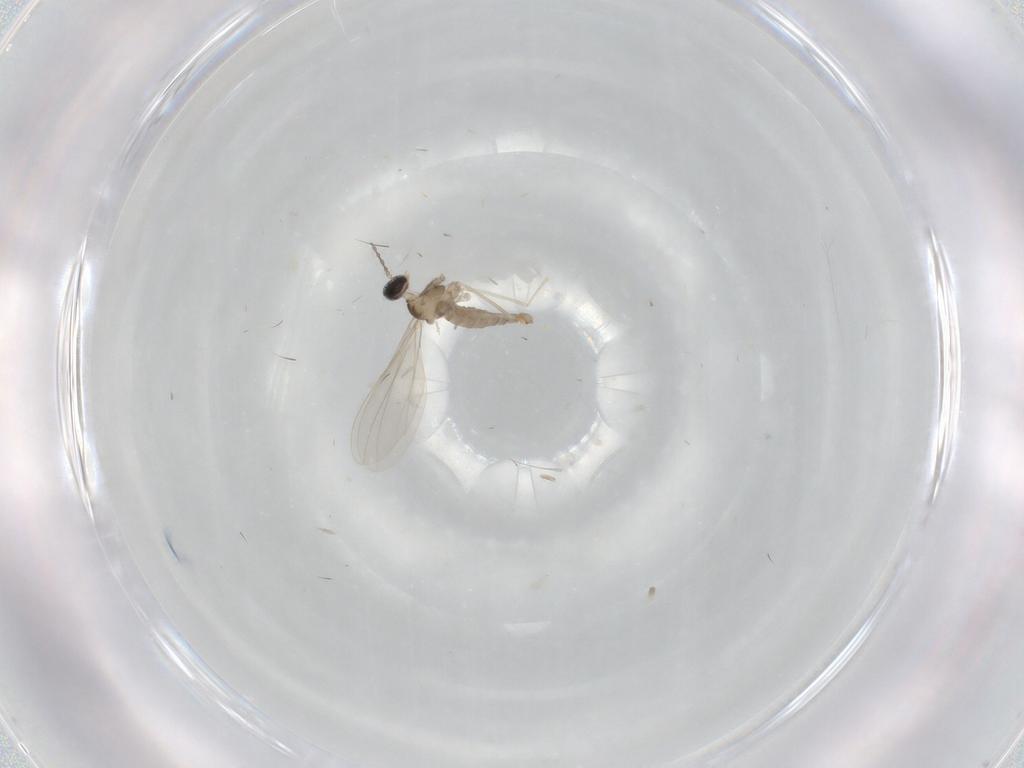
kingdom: Animalia
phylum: Arthropoda
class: Insecta
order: Diptera
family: Cecidomyiidae
